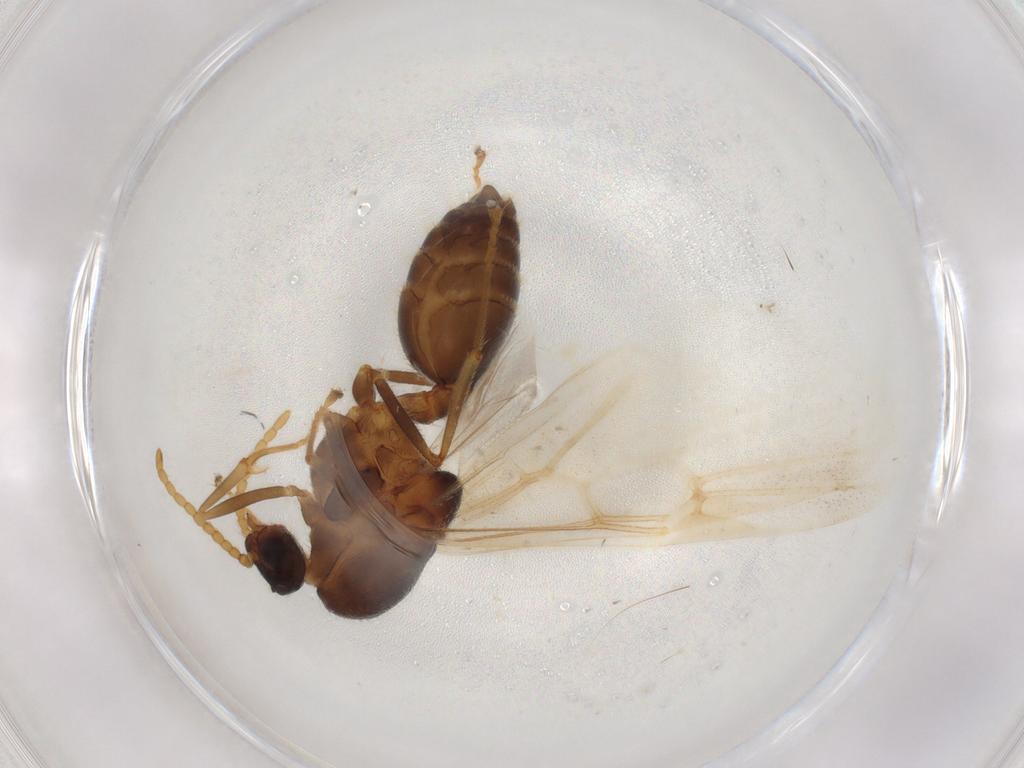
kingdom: Animalia
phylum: Arthropoda
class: Insecta
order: Hymenoptera
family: Formicidae
